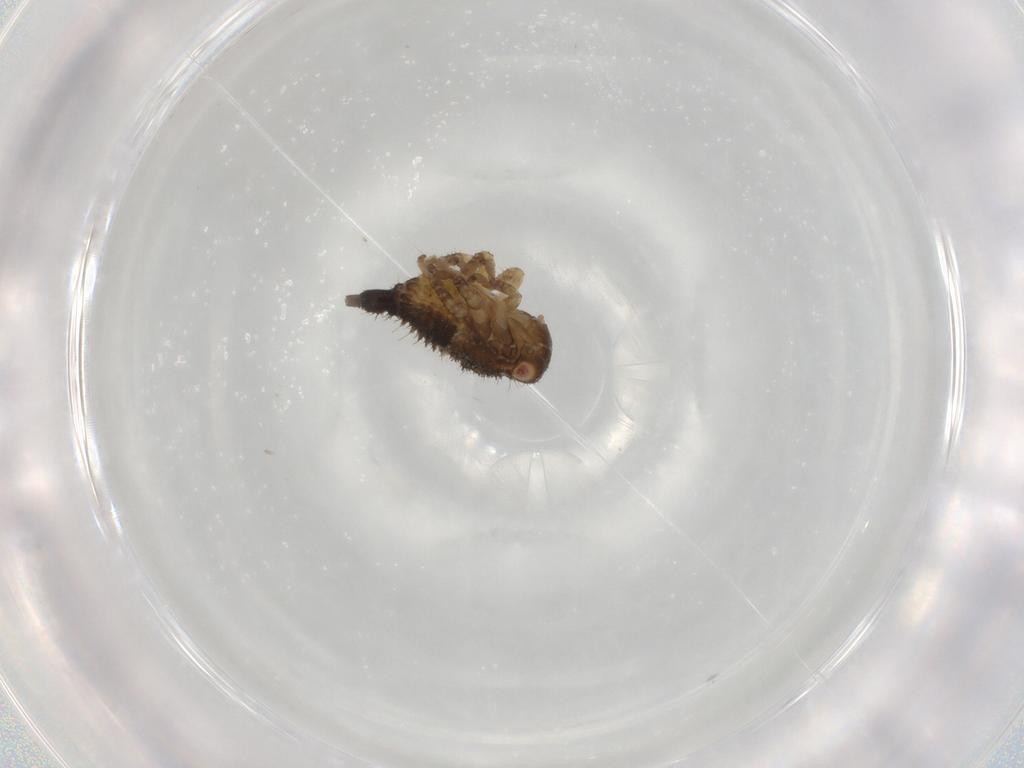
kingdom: Animalia
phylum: Arthropoda
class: Insecta
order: Hemiptera
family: Membracidae
